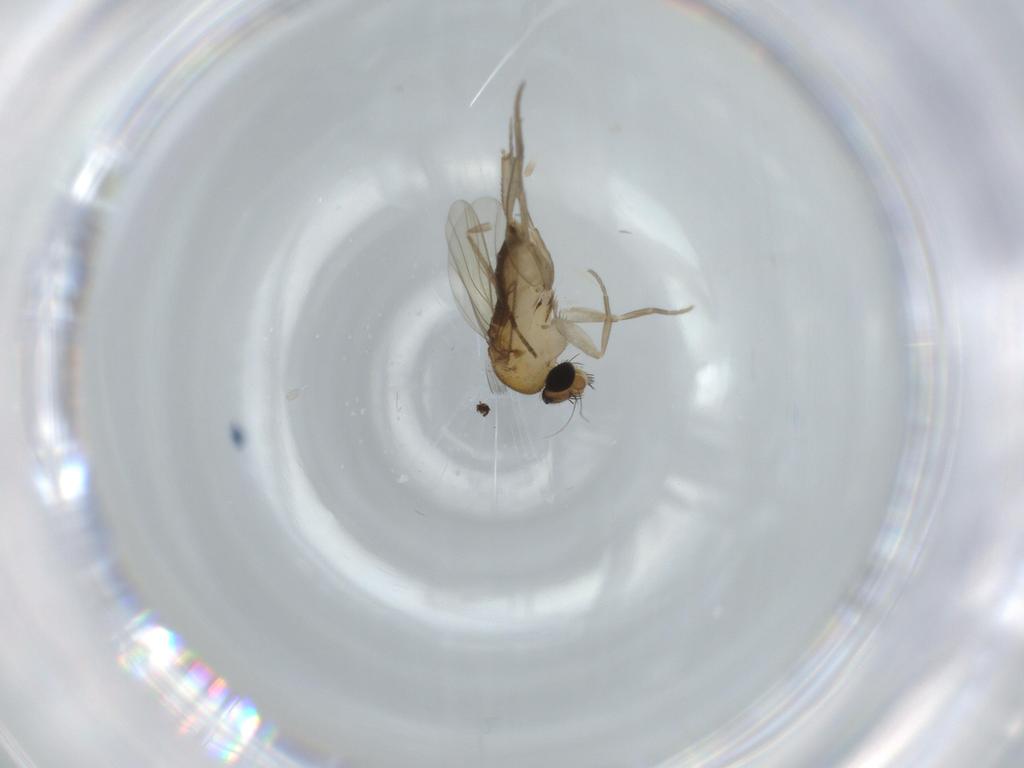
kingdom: Animalia
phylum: Arthropoda
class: Insecta
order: Diptera
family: Phoridae
